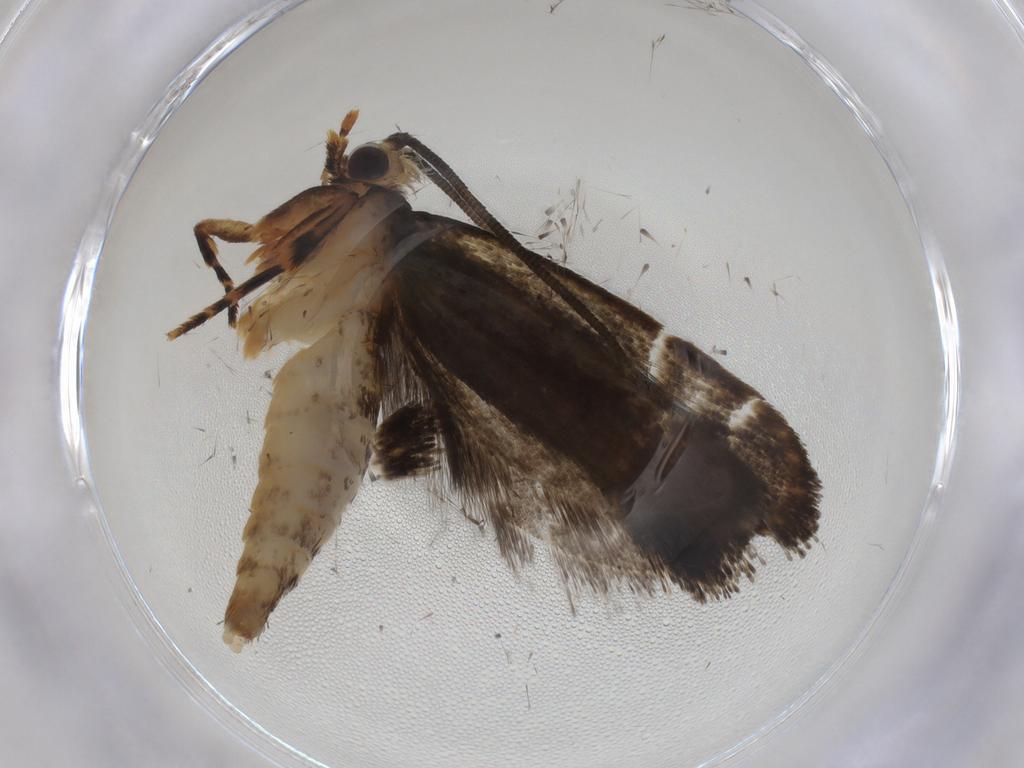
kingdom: Animalia
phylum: Arthropoda
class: Insecta
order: Lepidoptera
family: Tineidae
